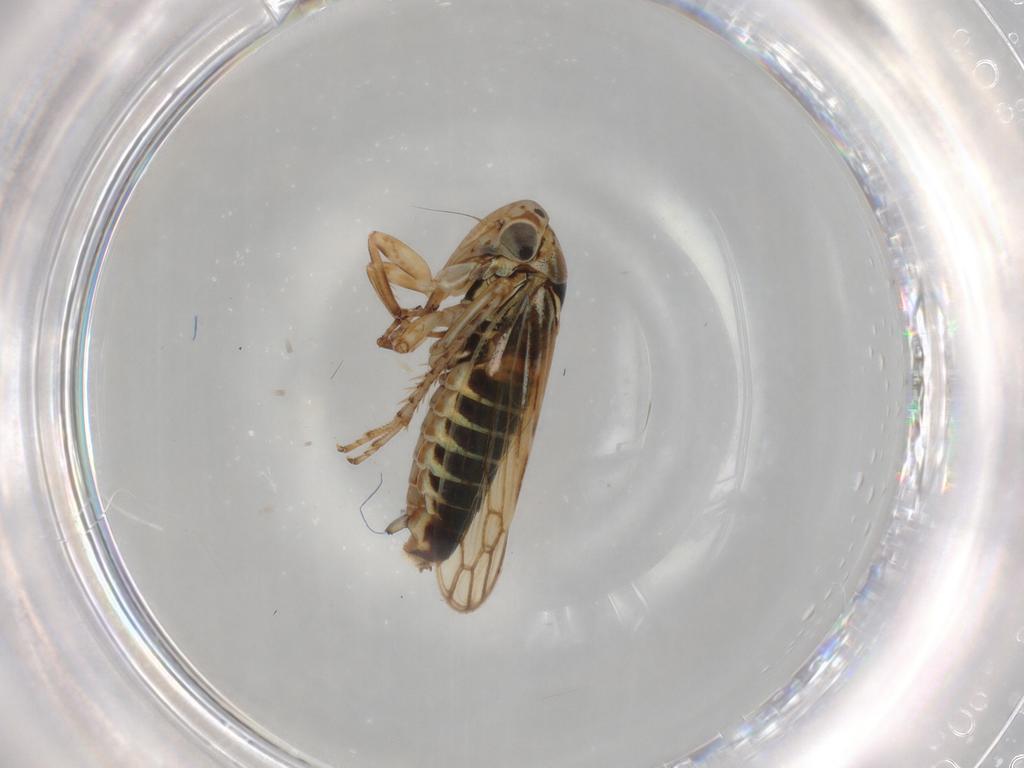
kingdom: Animalia
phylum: Arthropoda
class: Insecta
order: Hemiptera
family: Cicadellidae
